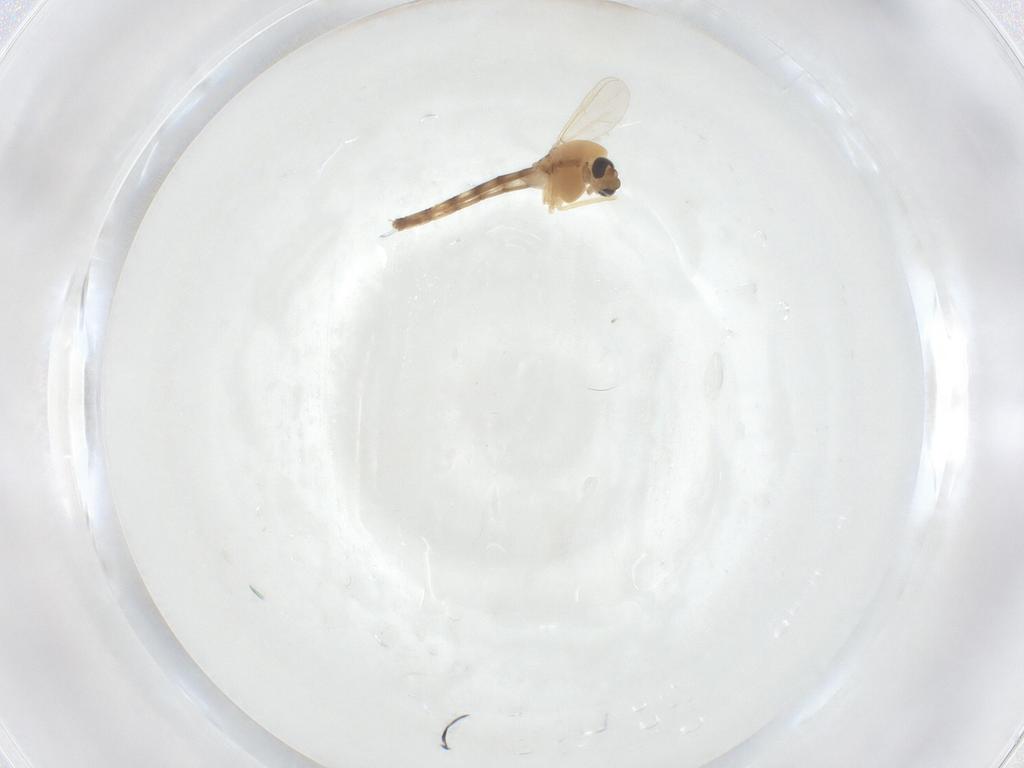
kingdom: Animalia
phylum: Arthropoda
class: Insecta
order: Diptera
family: Chironomidae
